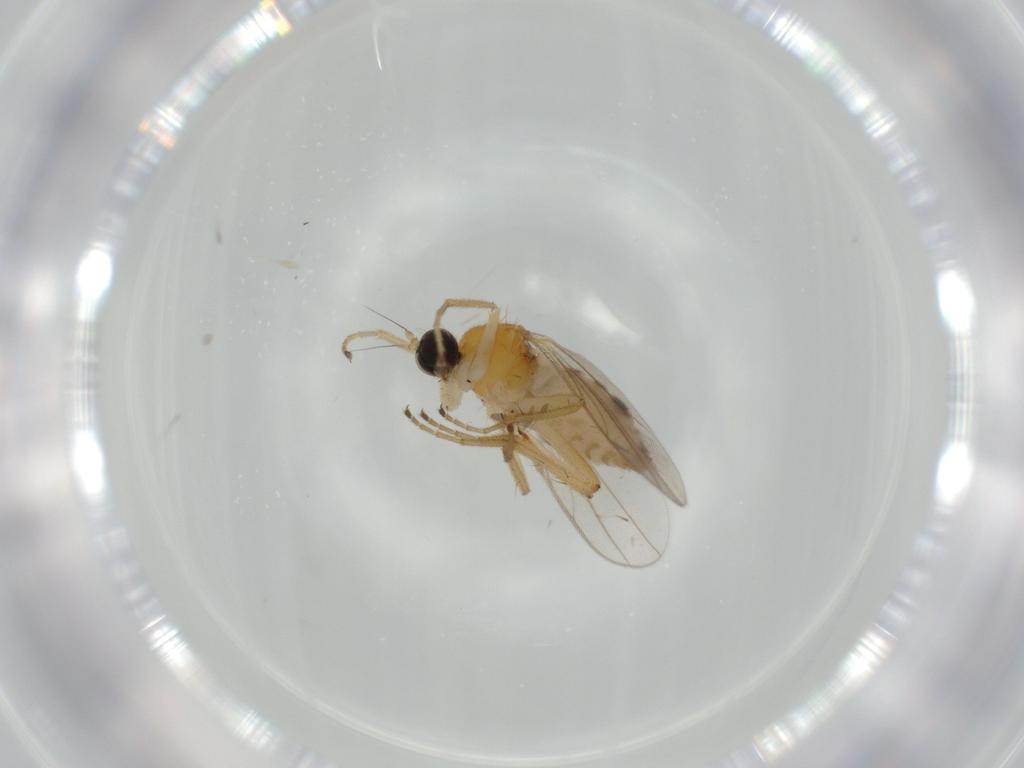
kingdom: Animalia
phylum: Arthropoda
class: Insecta
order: Diptera
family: Hybotidae
